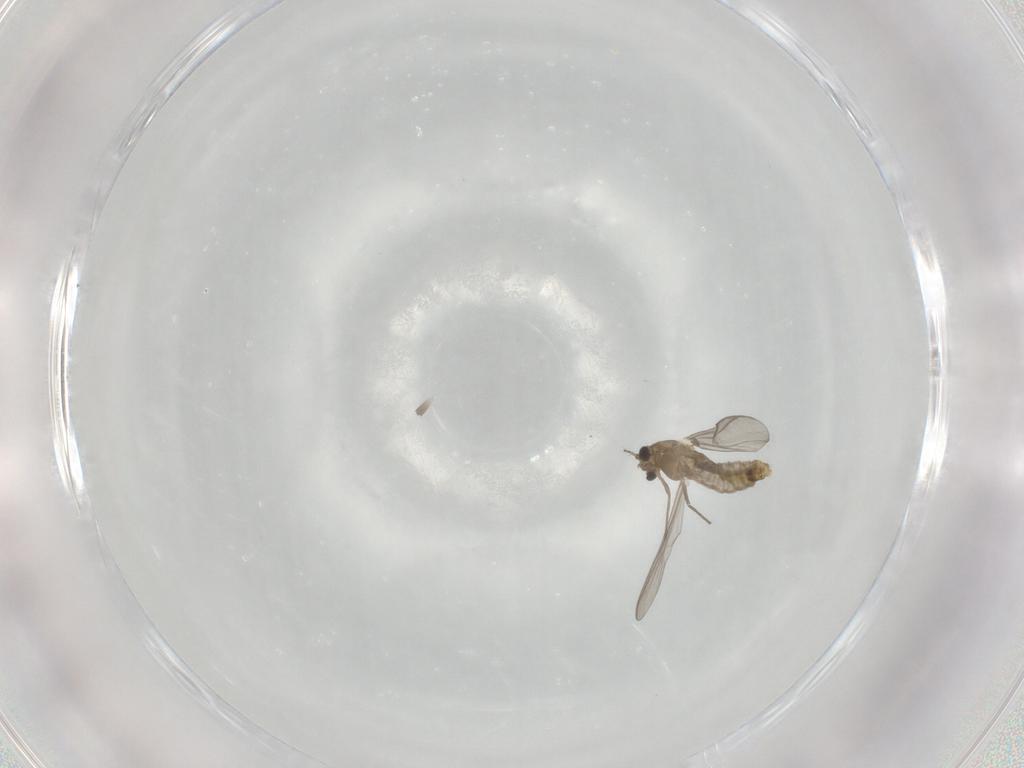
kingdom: Animalia
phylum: Arthropoda
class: Insecta
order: Diptera
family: Chironomidae
